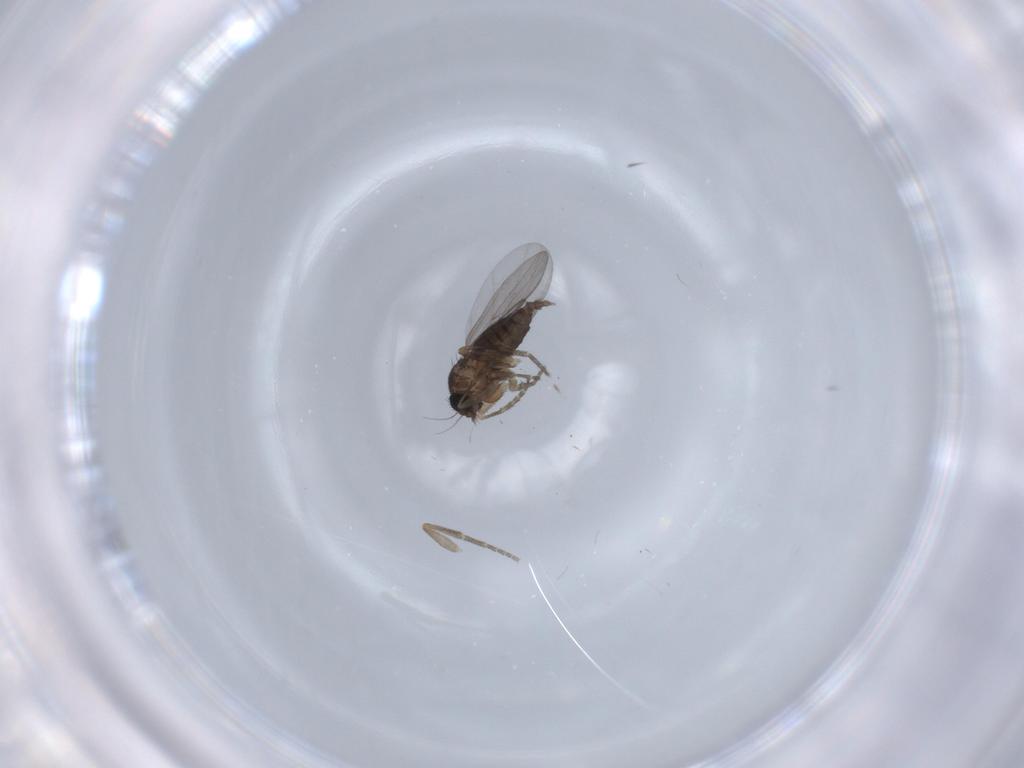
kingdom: Animalia
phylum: Arthropoda
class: Insecta
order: Diptera
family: Phoridae
